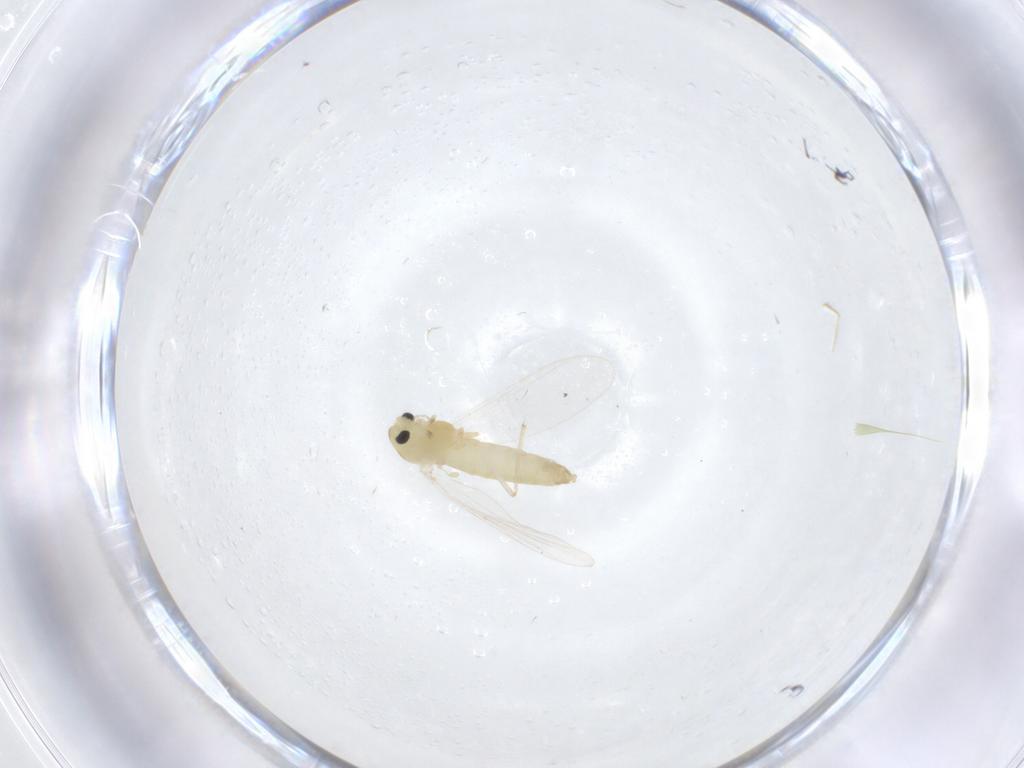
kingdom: Animalia
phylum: Arthropoda
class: Insecta
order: Diptera
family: Chironomidae
